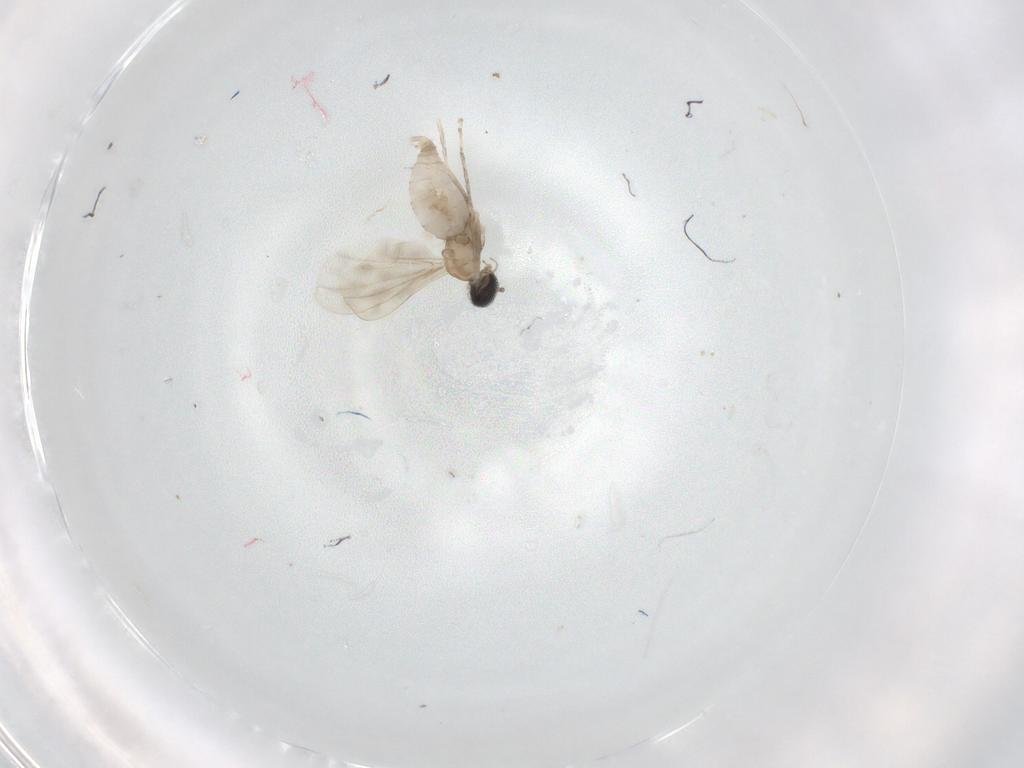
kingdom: Animalia
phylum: Arthropoda
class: Insecta
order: Diptera
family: Cecidomyiidae
